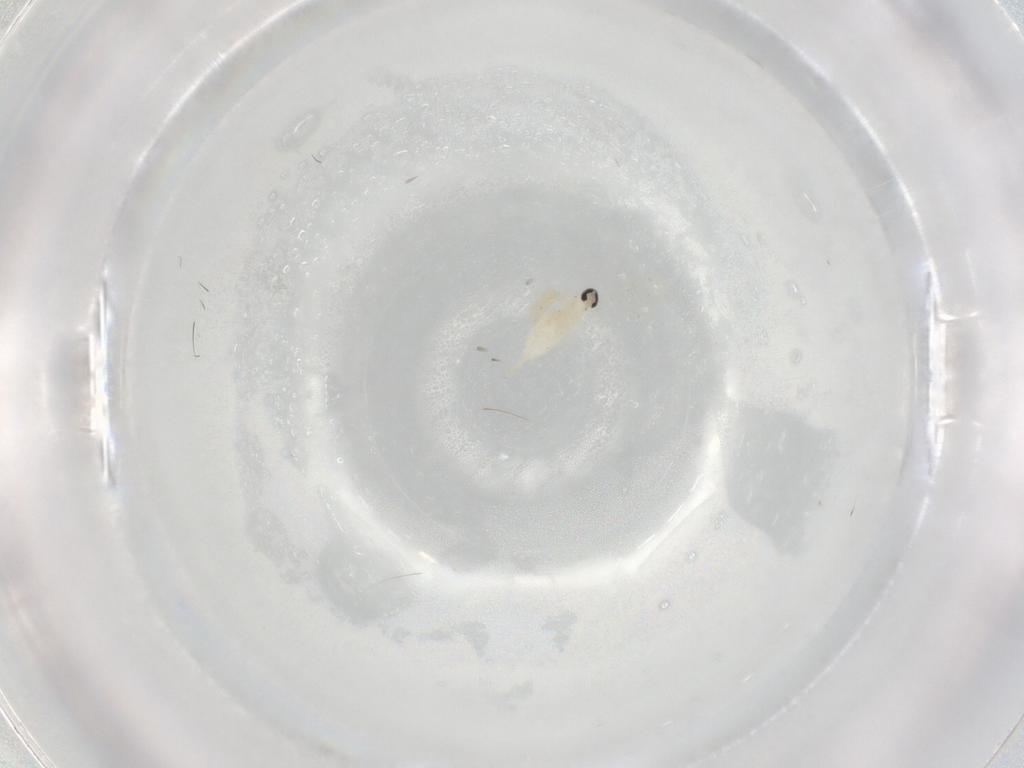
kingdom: Animalia
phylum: Arthropoda
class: Insecta
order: Diptera
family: Cecidomyiidae
